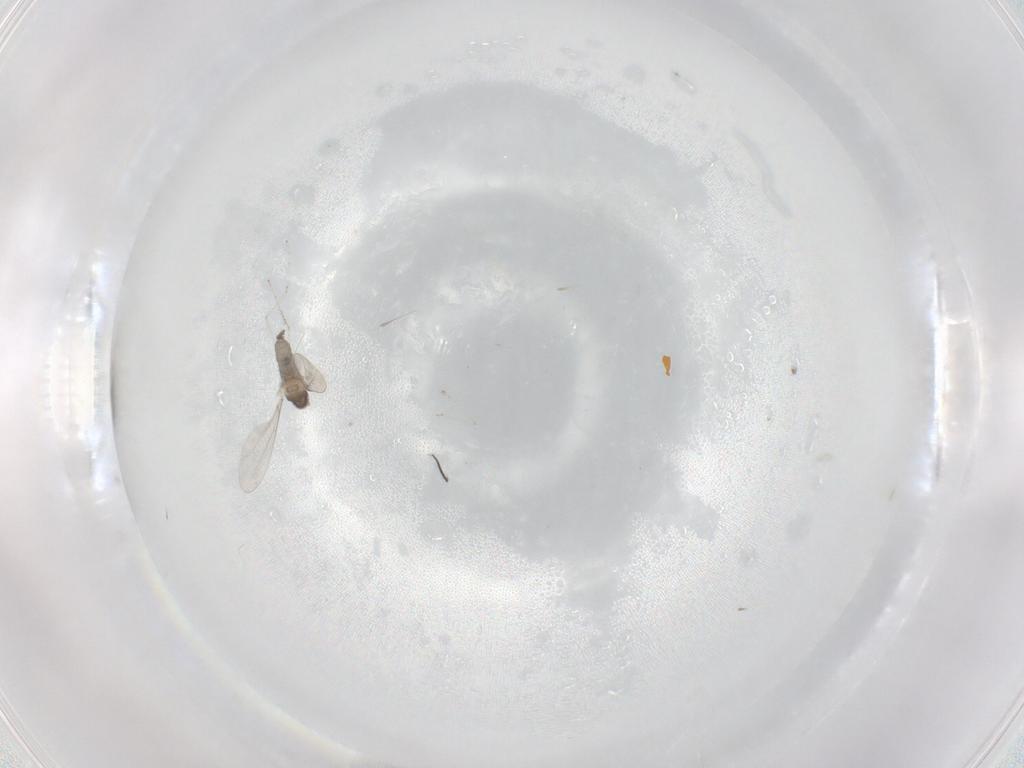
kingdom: Animalia
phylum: Arthropoda
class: Insecta
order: Diptera
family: Cecidomyiidae
